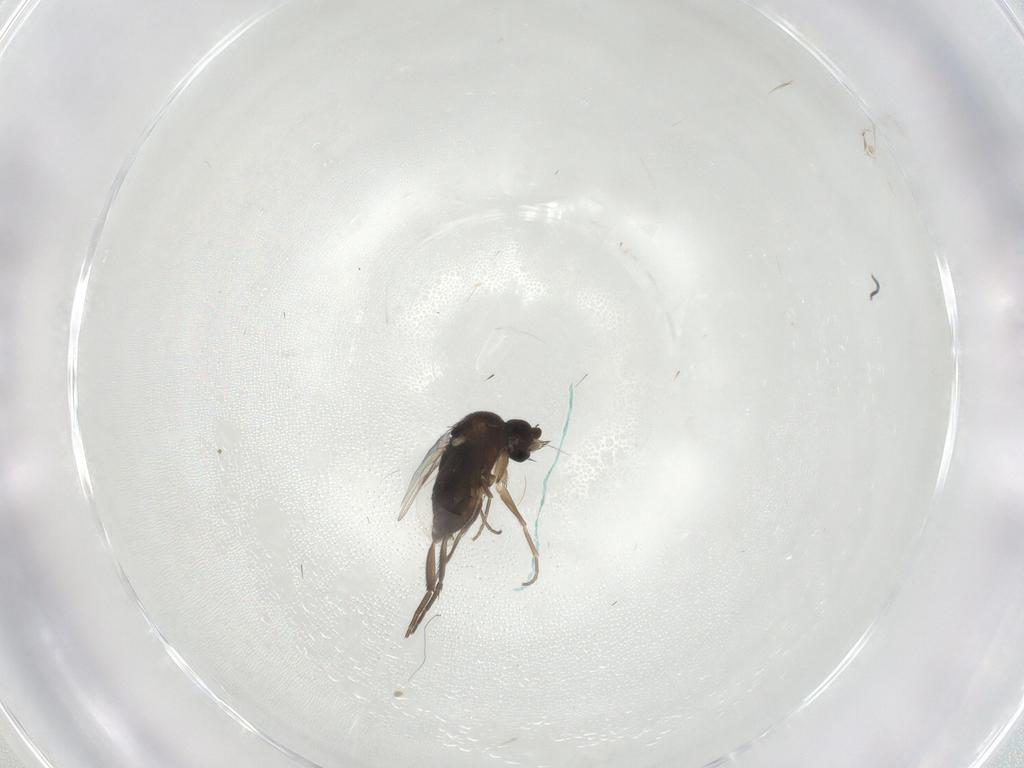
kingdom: Animalia
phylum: Arthropoda
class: Insecta
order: Diptera
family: Phoridae
